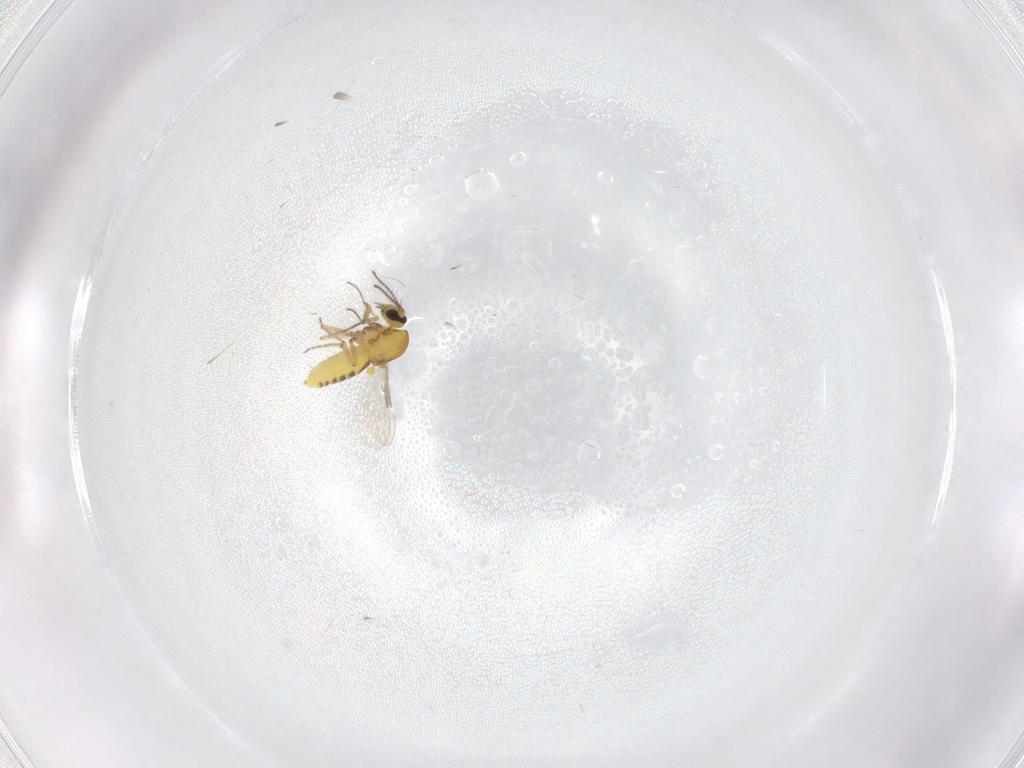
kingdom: Animalia
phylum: Arthropoda
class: Insecta
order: Diptera
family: Ceratopogonidae
